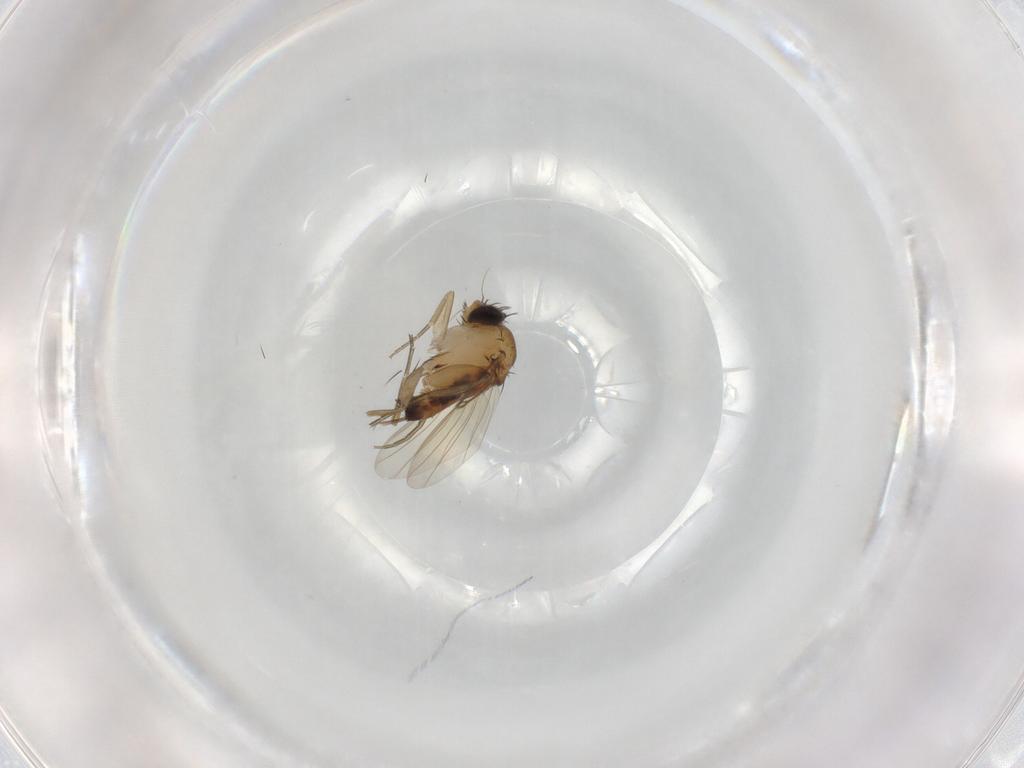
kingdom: Animalia
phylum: Arthropoda
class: Insecta
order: Diptera
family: Phoridae
